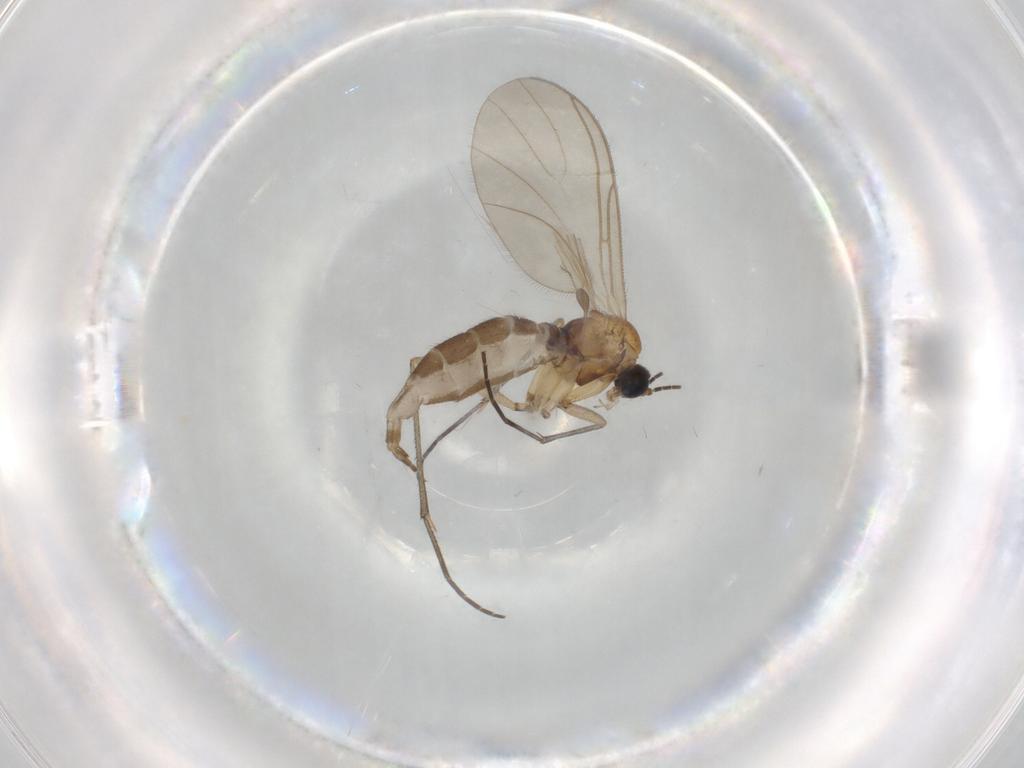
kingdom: Animalia
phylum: Arthropoda
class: Insecta
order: Diptera
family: Sciaridae
